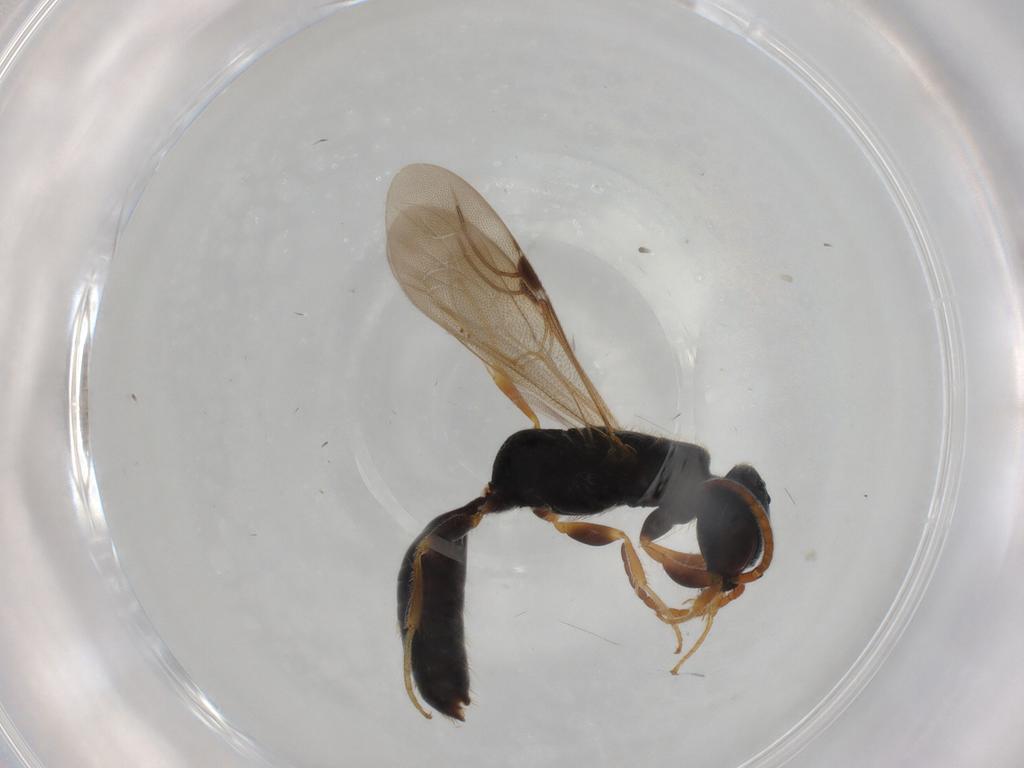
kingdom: Animalia
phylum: Arthropoda
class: Insecta
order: Hymenoptera
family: Bethylidae
